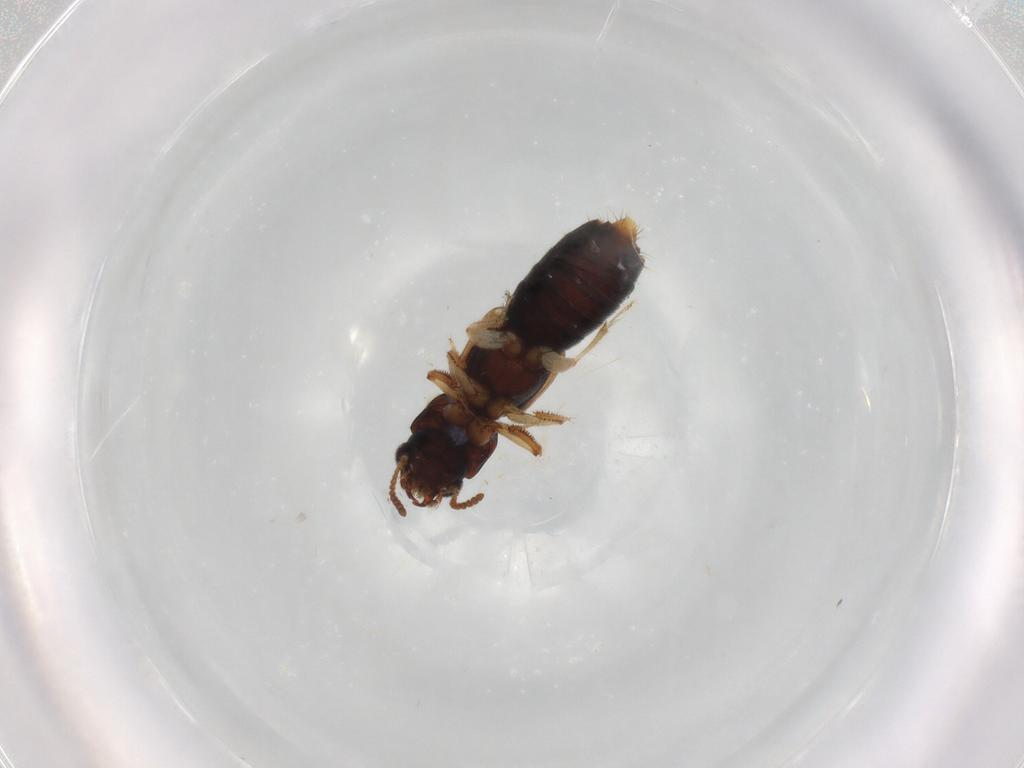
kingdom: Animalia
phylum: Arthropoda
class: Insecta
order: Coleoptera
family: Staphylinidae
